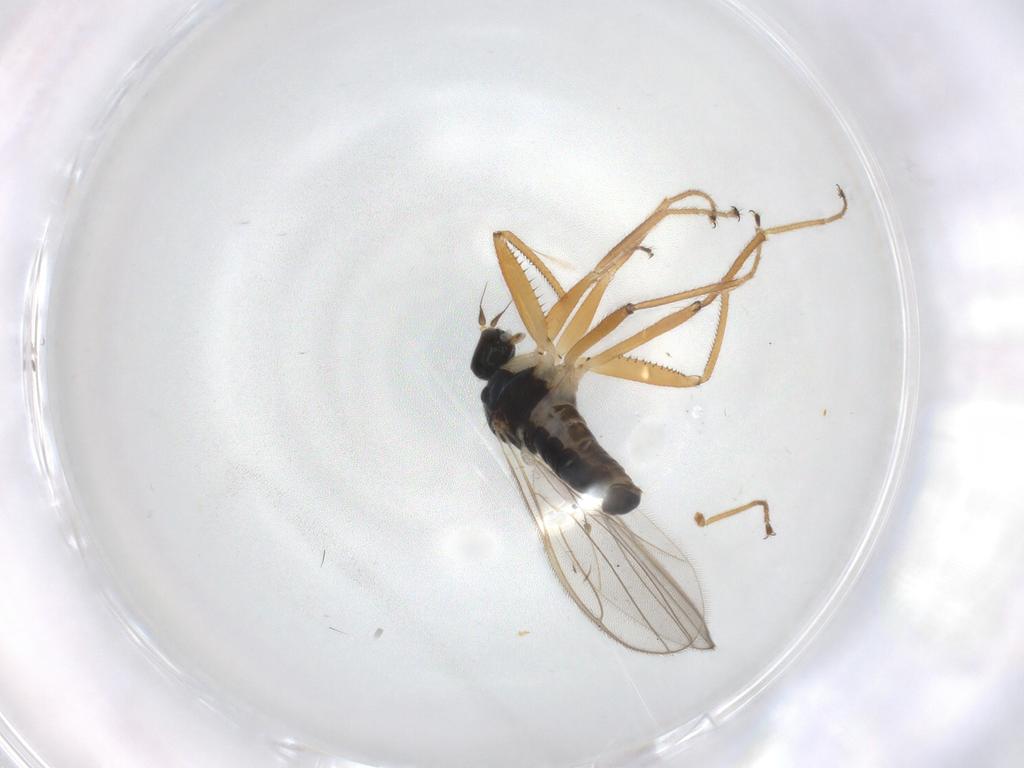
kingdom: Animalia
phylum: Arthropoda
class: Insecta
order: Diptera
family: Hybotidae
